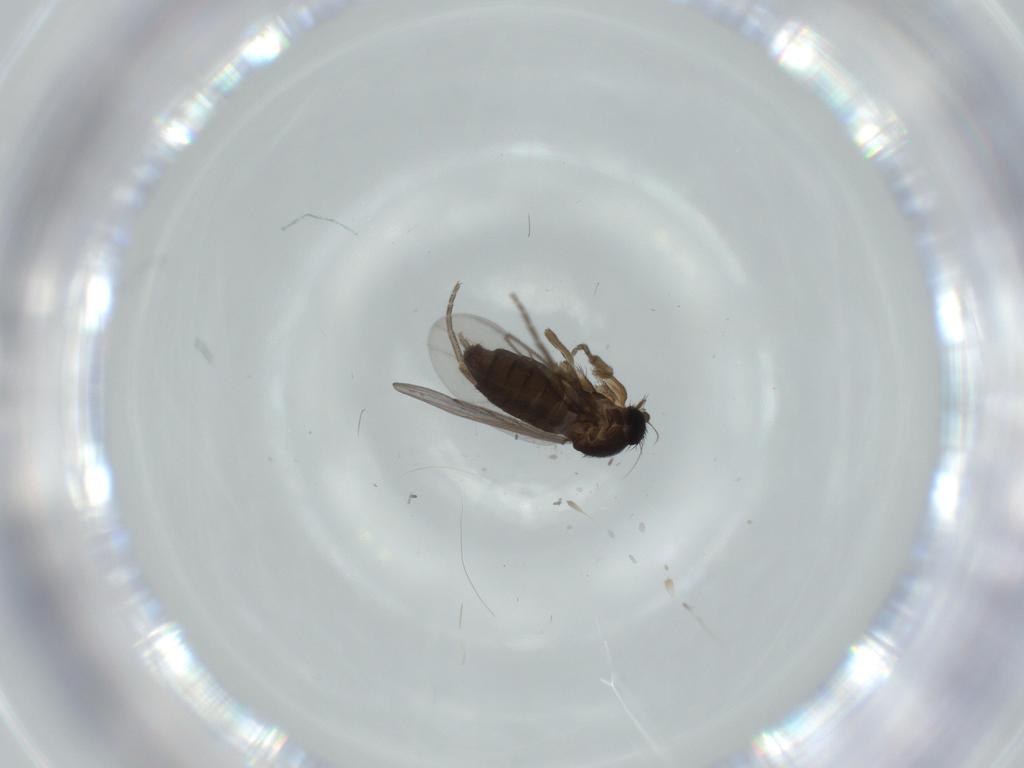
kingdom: Animalia
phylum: Arthropoda
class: Insecta
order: Diptera
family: Phoridae
